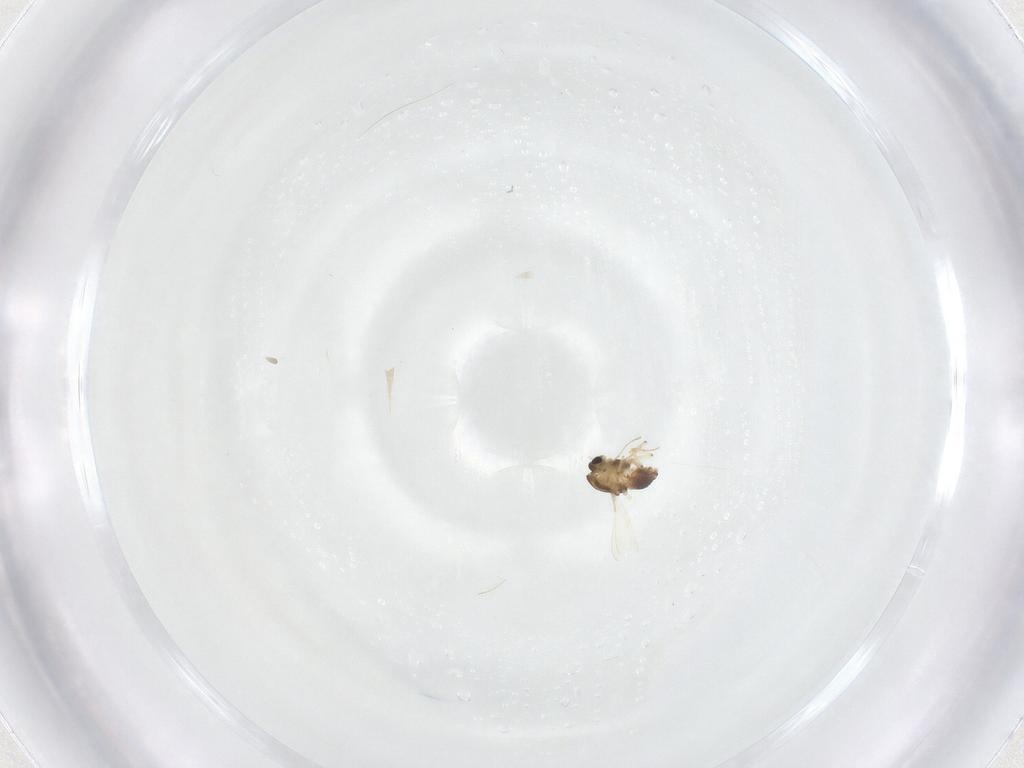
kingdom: Animalia
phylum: Arthropoda
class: Insecta
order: Diptera
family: Chironomidae
